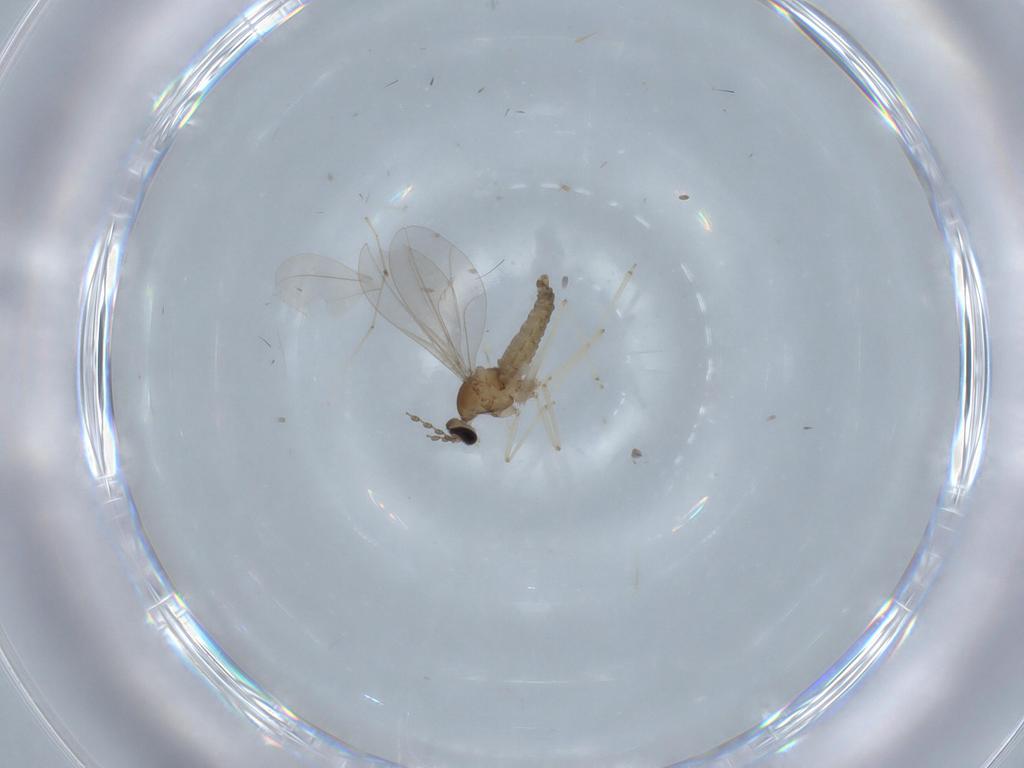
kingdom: Animalia
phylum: Arthropoda
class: Insecta
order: Diptera
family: Cecidomyiidae
